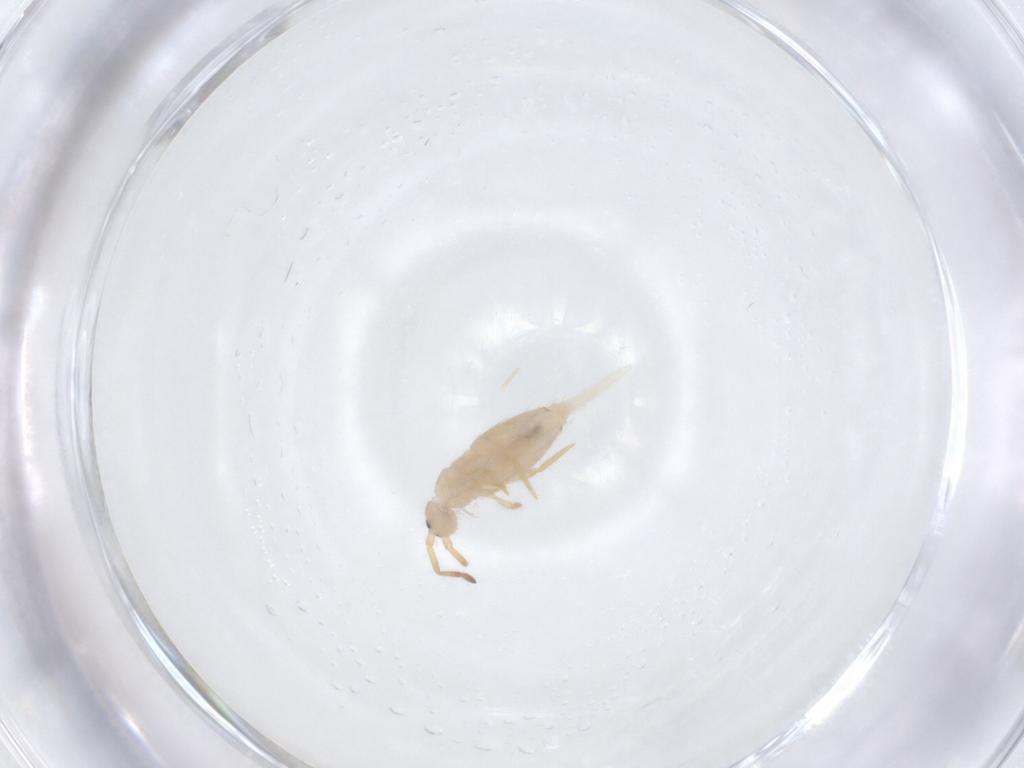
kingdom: Animalia
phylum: Arthropoda
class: Collembola
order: Entomobryomorpha
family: Entomobryidae
